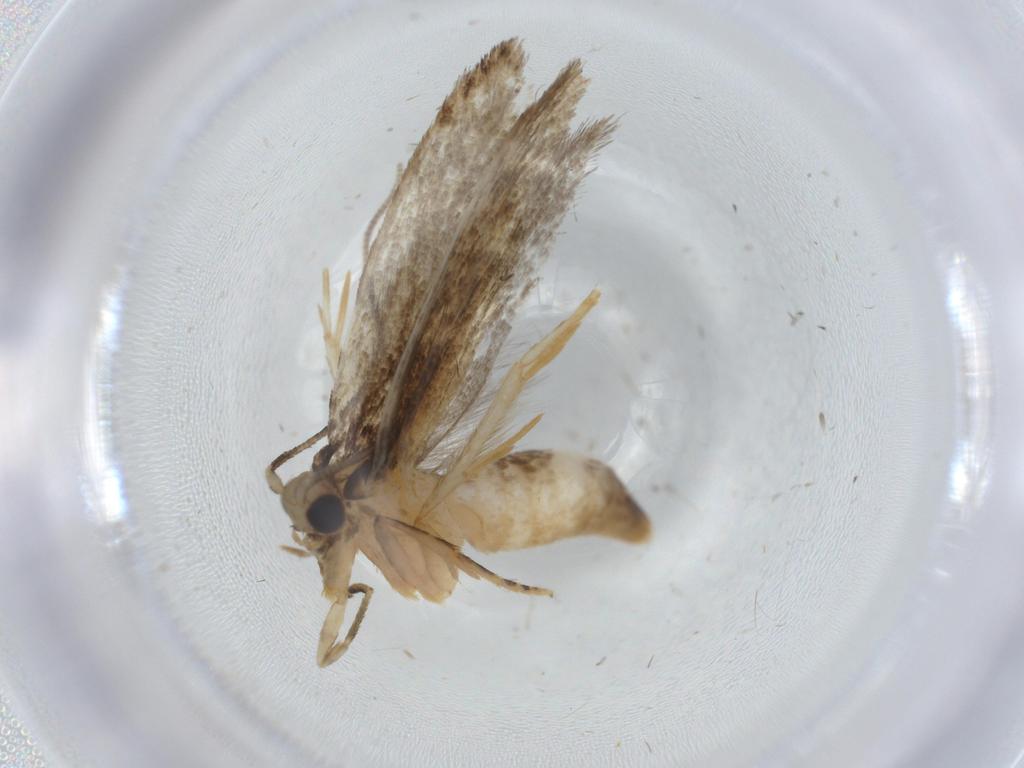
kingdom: Animalia
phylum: Arthropoda
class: Insecta
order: Lepidoptera
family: Tineidae
